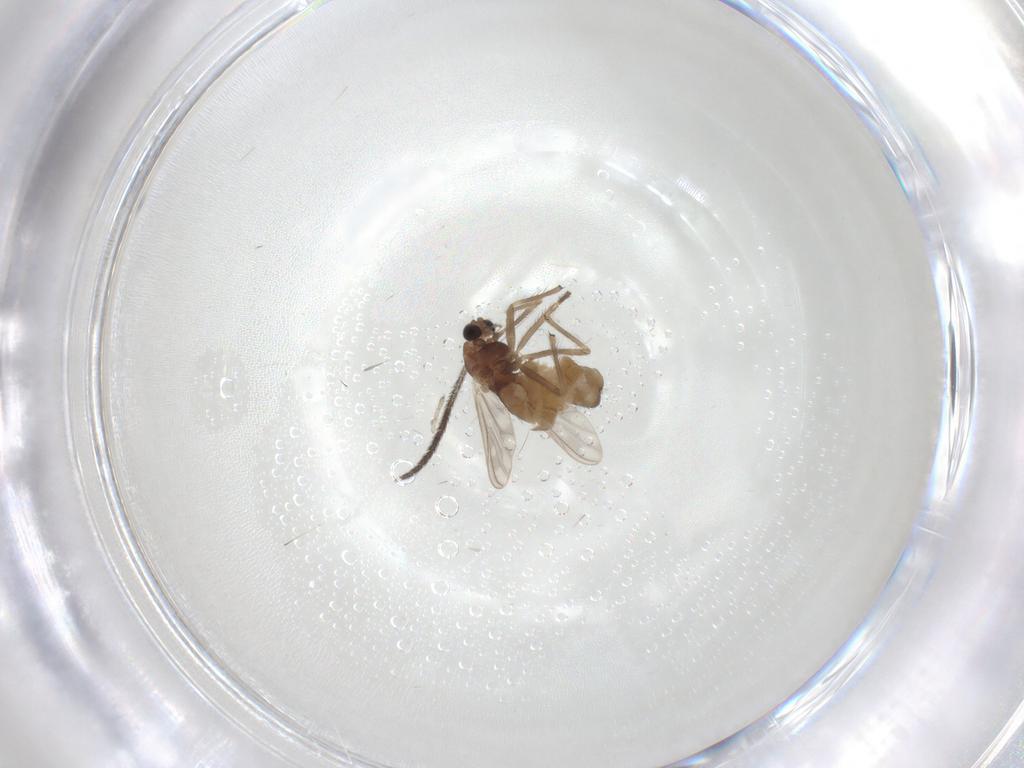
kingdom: Animalia
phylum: Arthropoda
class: Insecta
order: Diptera
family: Chironomidae
